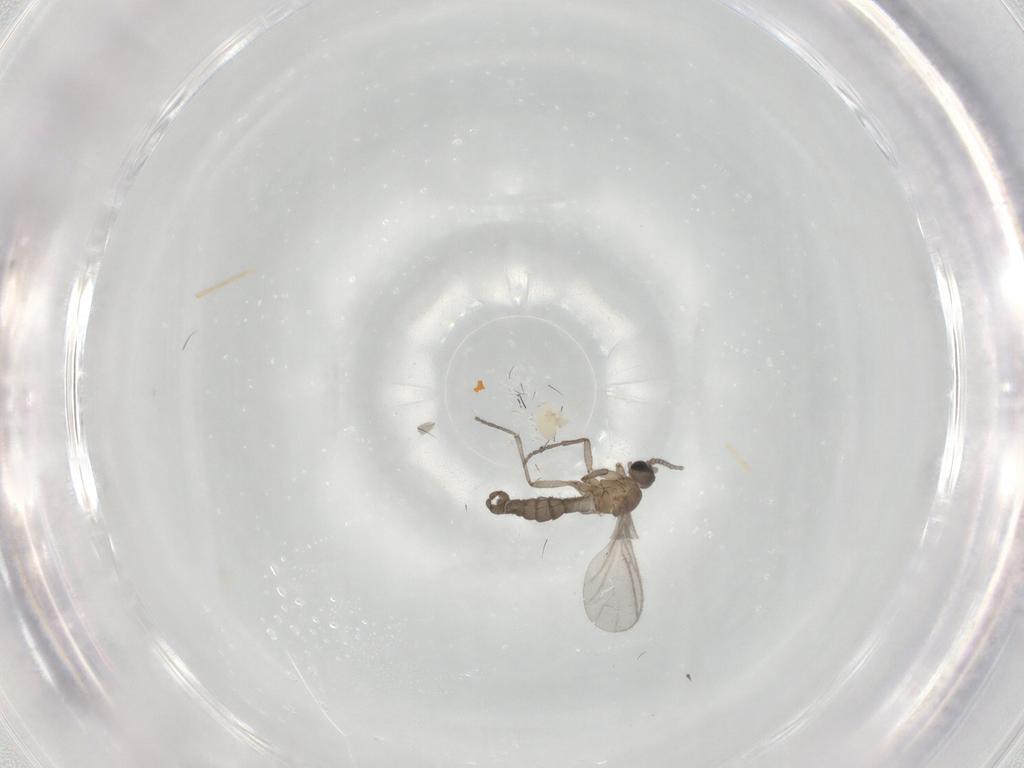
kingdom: Animalia
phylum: Arthropoda
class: Insecta
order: Diptera
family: Sciaridae
